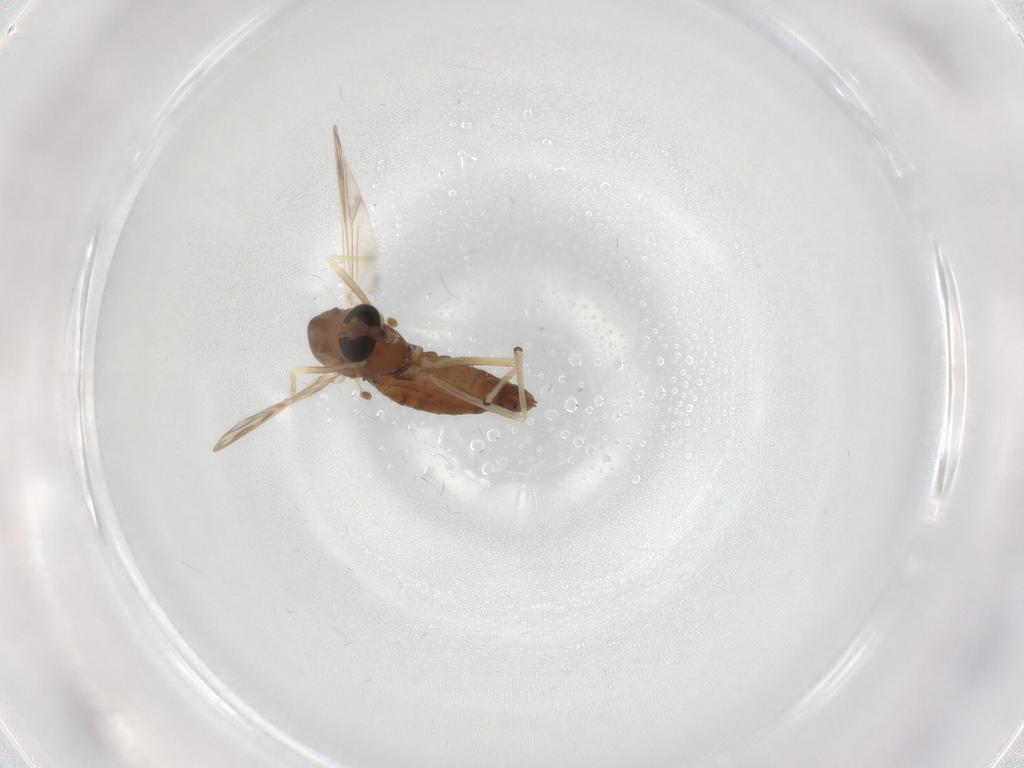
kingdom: Animalia
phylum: Arthropoda
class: Insecta
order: Diptera
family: Chironomidae
